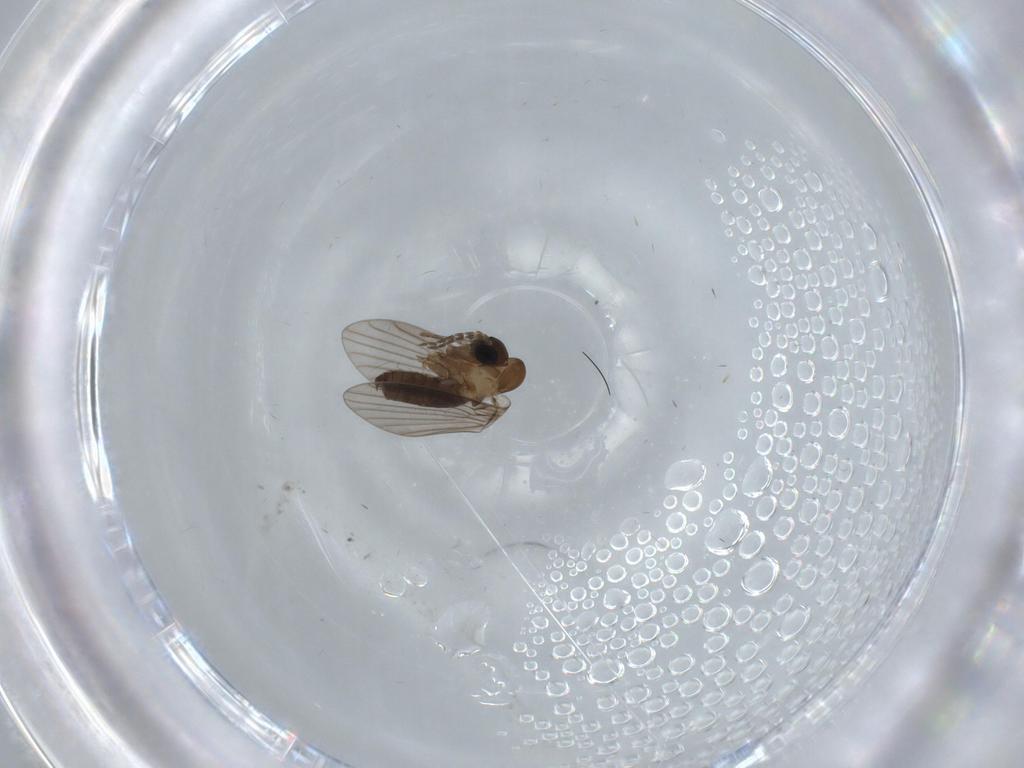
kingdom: Animalia
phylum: Arthropoda
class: Insecta
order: Diptera
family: Psychodidae
